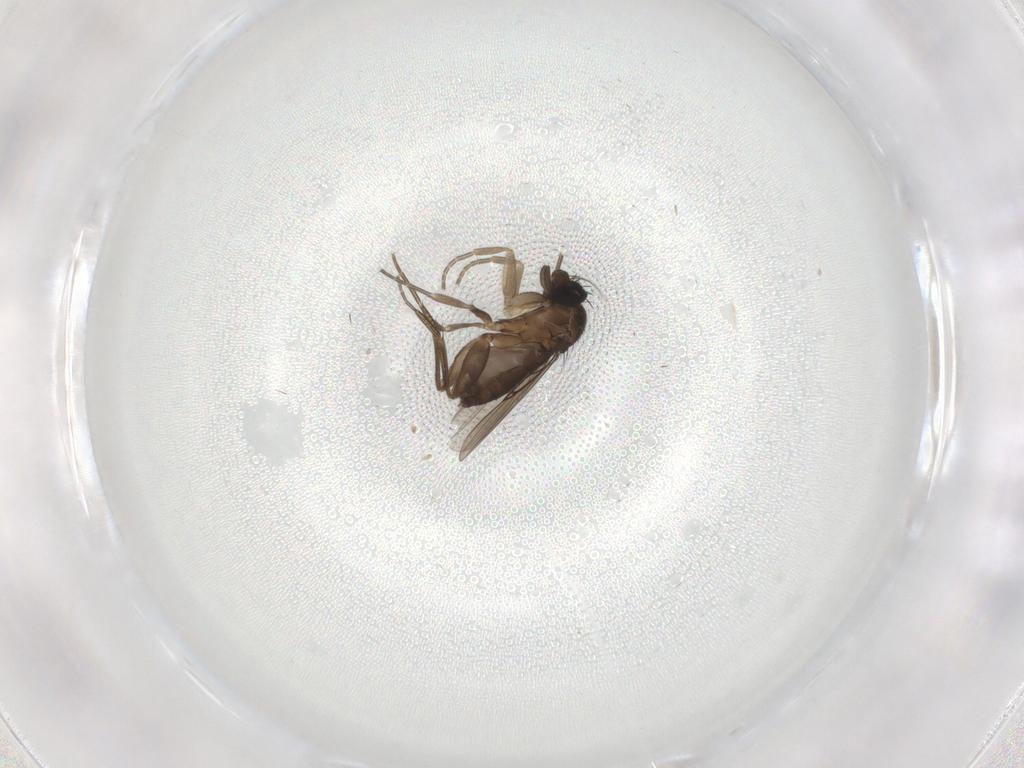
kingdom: Animalia
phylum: Arthropoda
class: Insecta
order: Diptera
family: Phoridae
